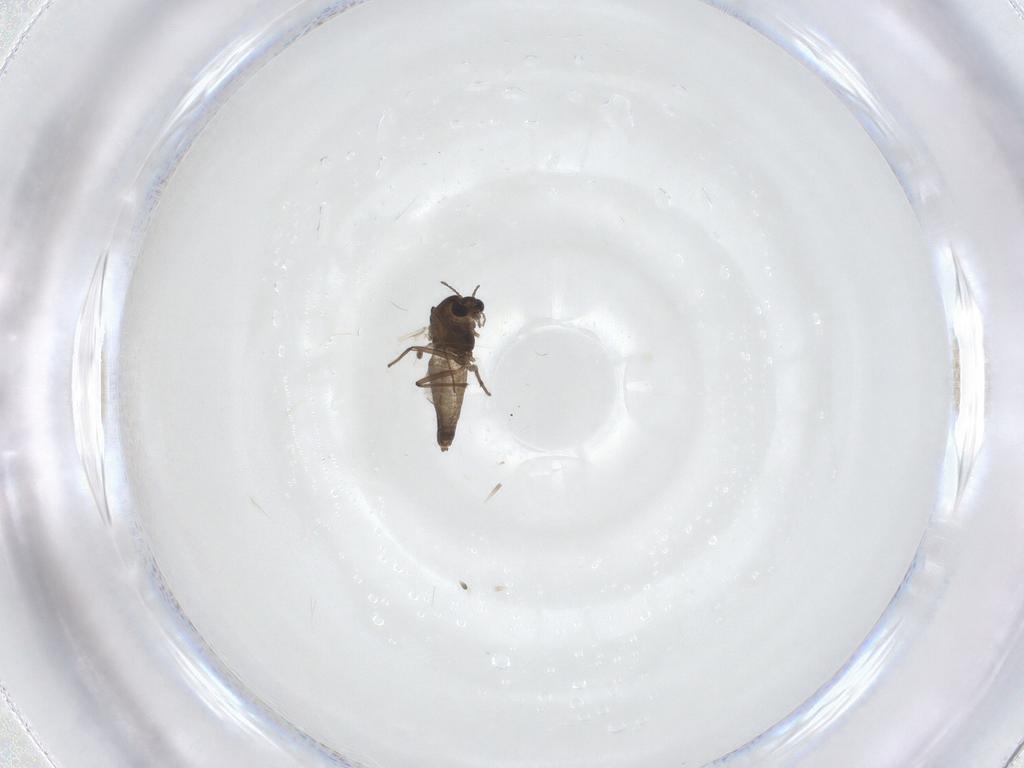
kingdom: Animalia
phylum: Arthropoda
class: Insecta
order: Diptera
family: Chironomidae
